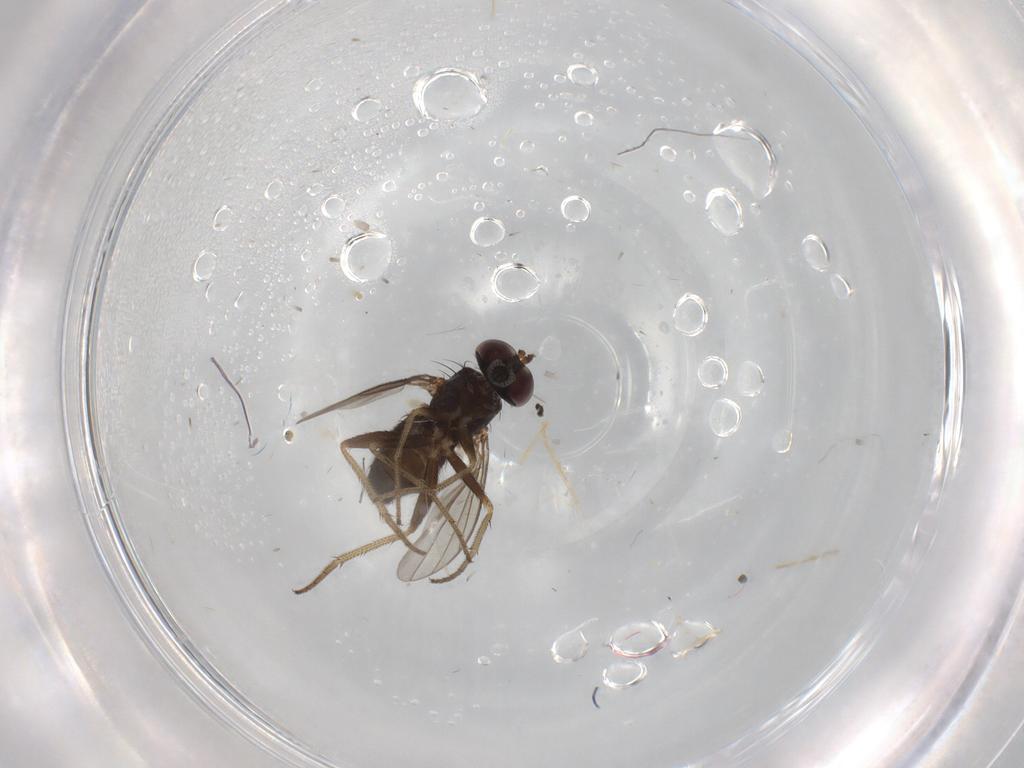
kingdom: Animalia
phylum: Arthropoda
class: Insecta
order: Diptera
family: Dolichopodidae
